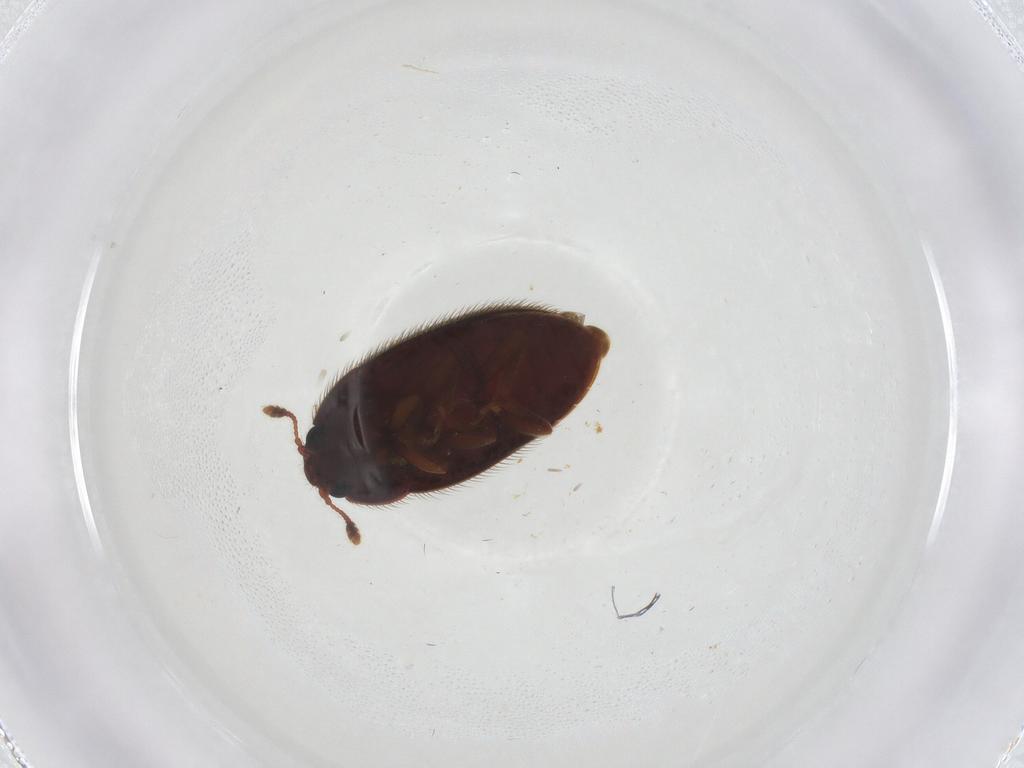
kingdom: Animalia
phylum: Arthropoda
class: Insecta
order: Coleoptera
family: Biphyllidae
